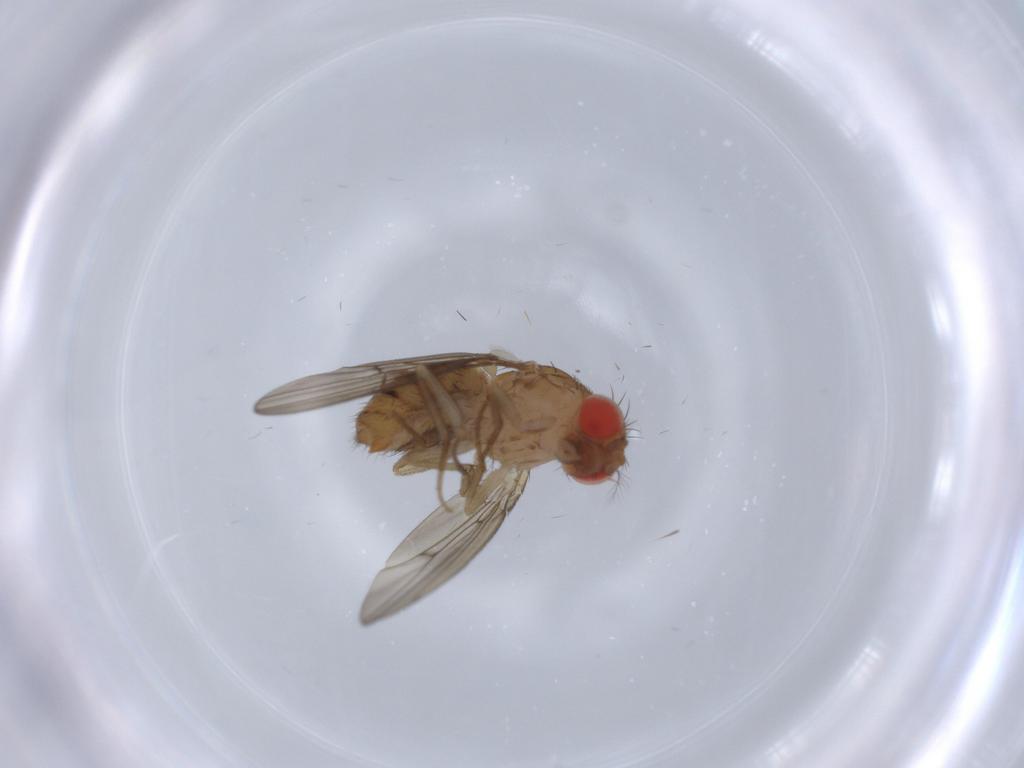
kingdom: Animalia
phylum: Arthropoda
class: Insecta
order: Diptera
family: Drosophilidae
